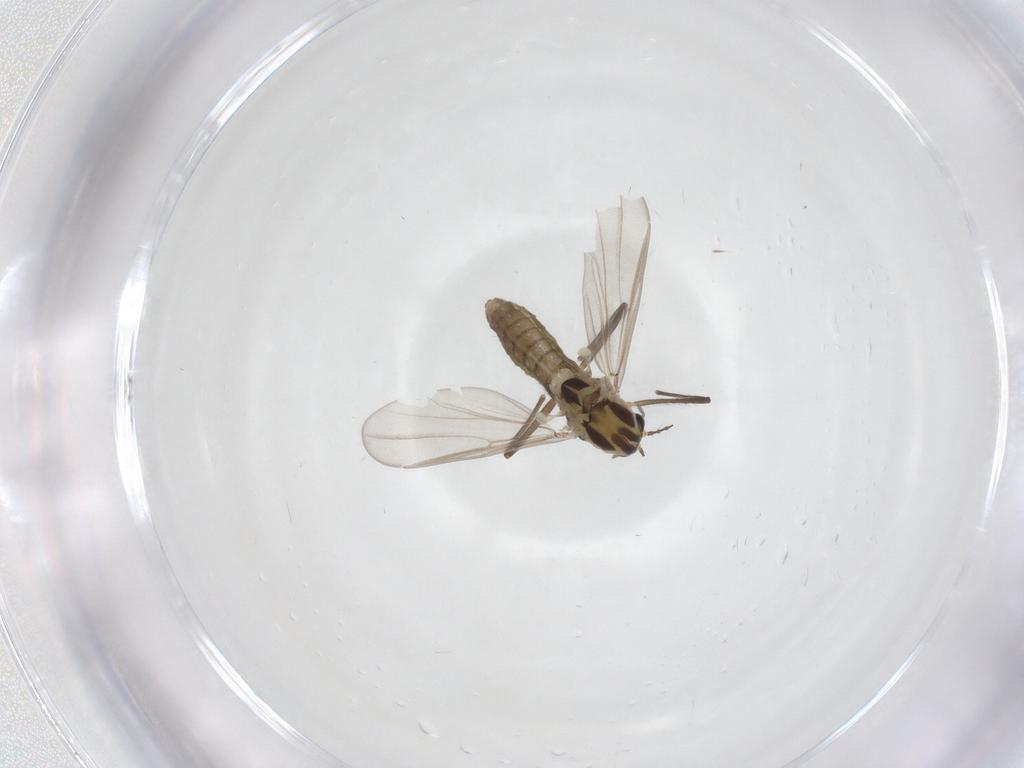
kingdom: Animalia
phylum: Arthropoda
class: Insecta
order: Diptera
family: Chironomidae
